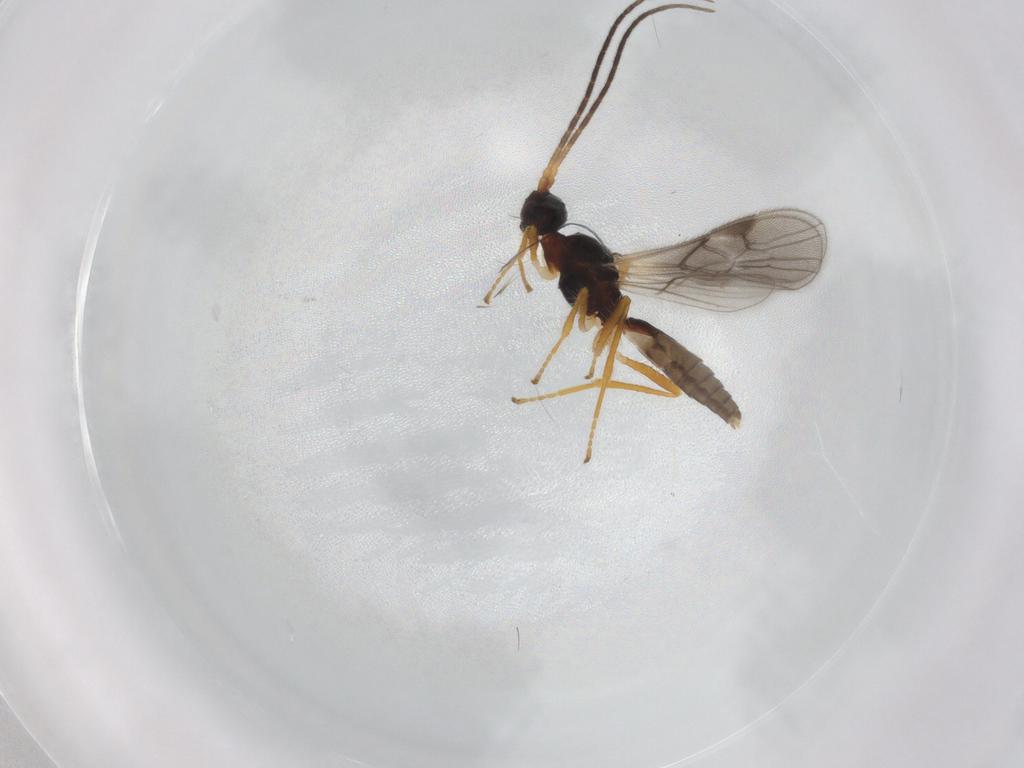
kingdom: Animalia
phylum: Arthropoda
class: Insecta
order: Hymenoptera
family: Braconidae
